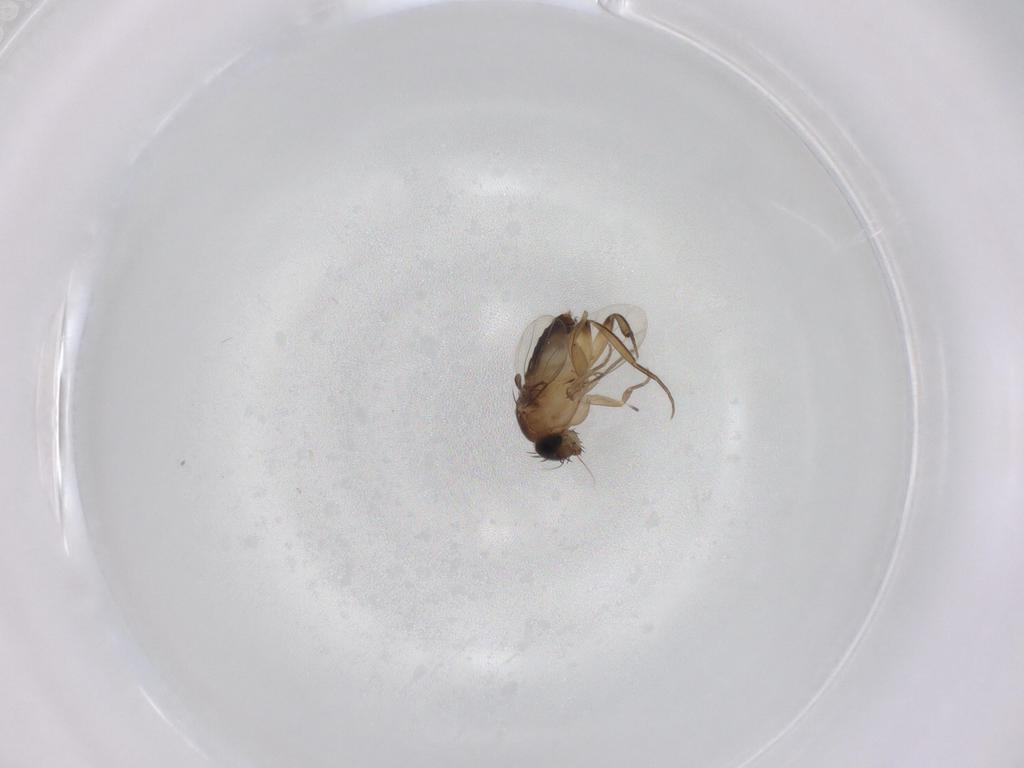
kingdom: Animalia
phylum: Arthropoda
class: Insecta
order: Diptera
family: Phoridae
